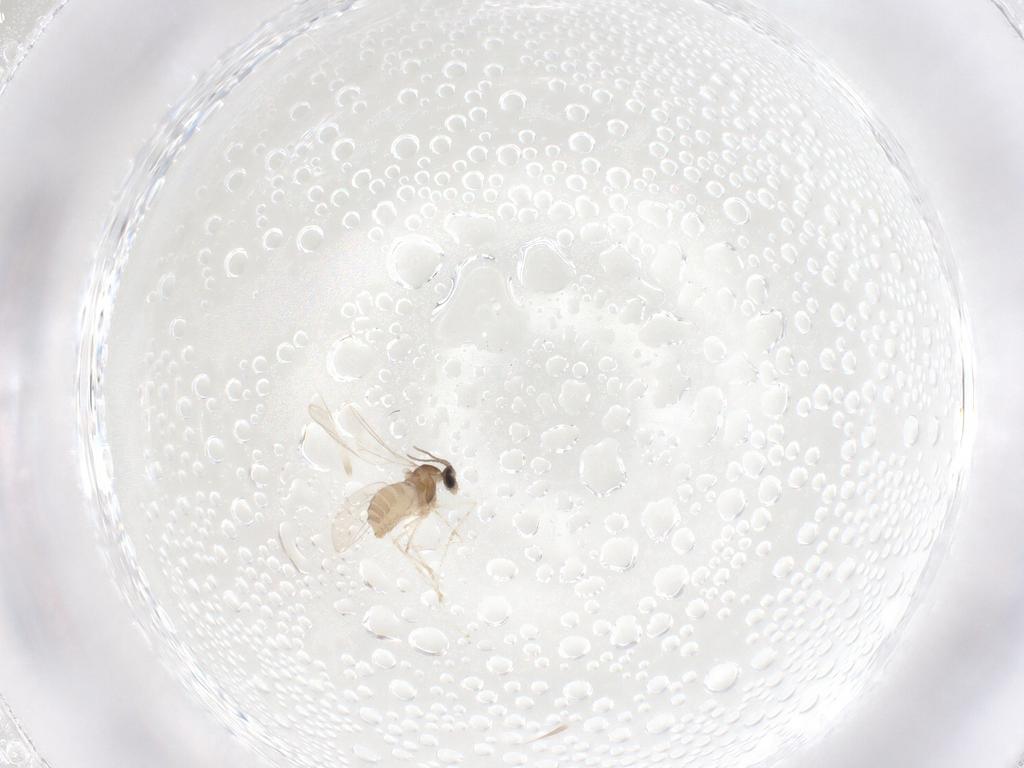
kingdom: Animalia
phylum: Arthropoda
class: Insecta
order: Diptera
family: Cecidomyiidae
